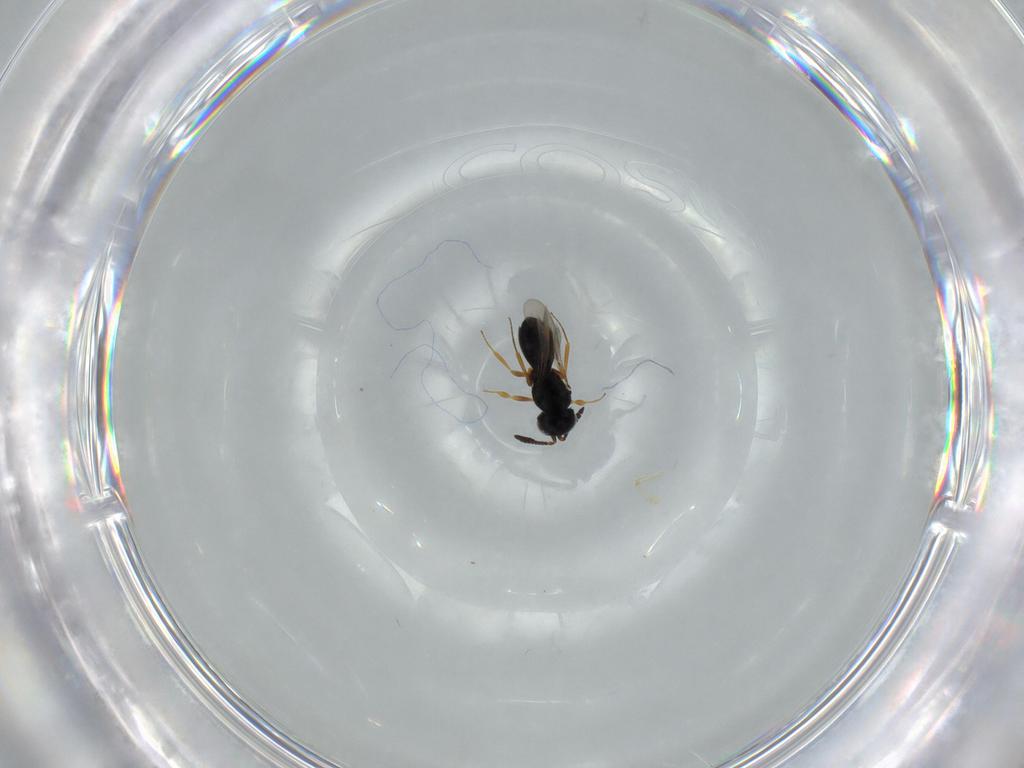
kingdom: Animalia
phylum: Arthropoda
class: Insecta
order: Hymenoptera
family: Scelionidae
